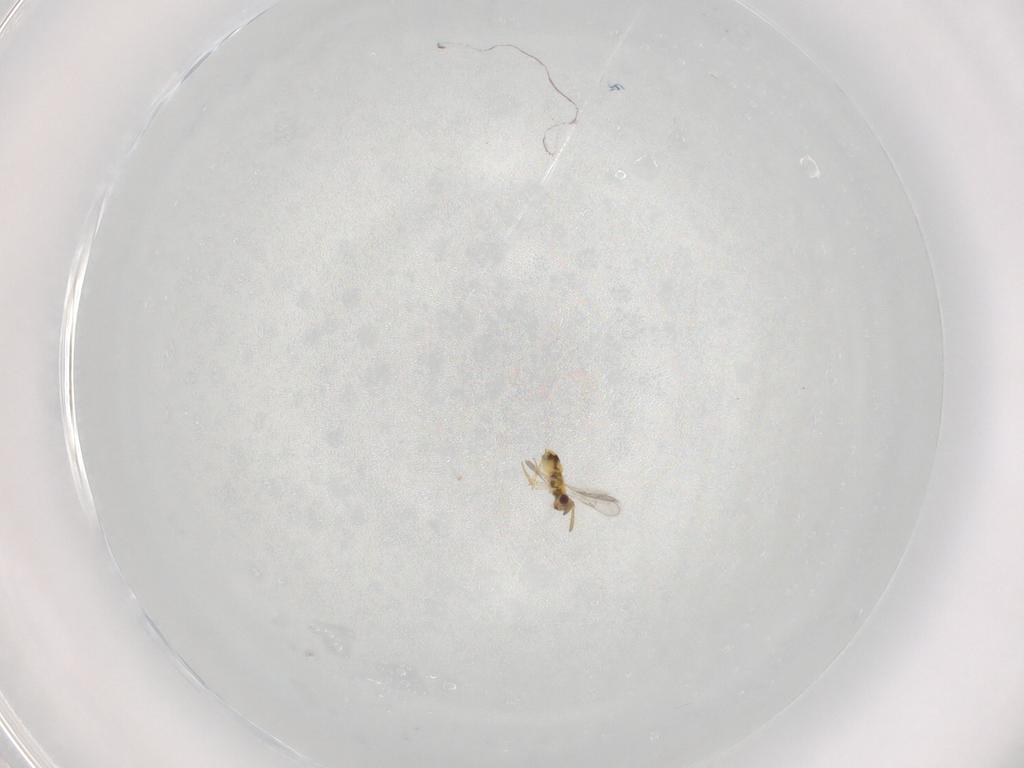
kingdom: Animalia
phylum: Arthropoda
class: Insecta
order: Hymenoptera
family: Aphelinidae
